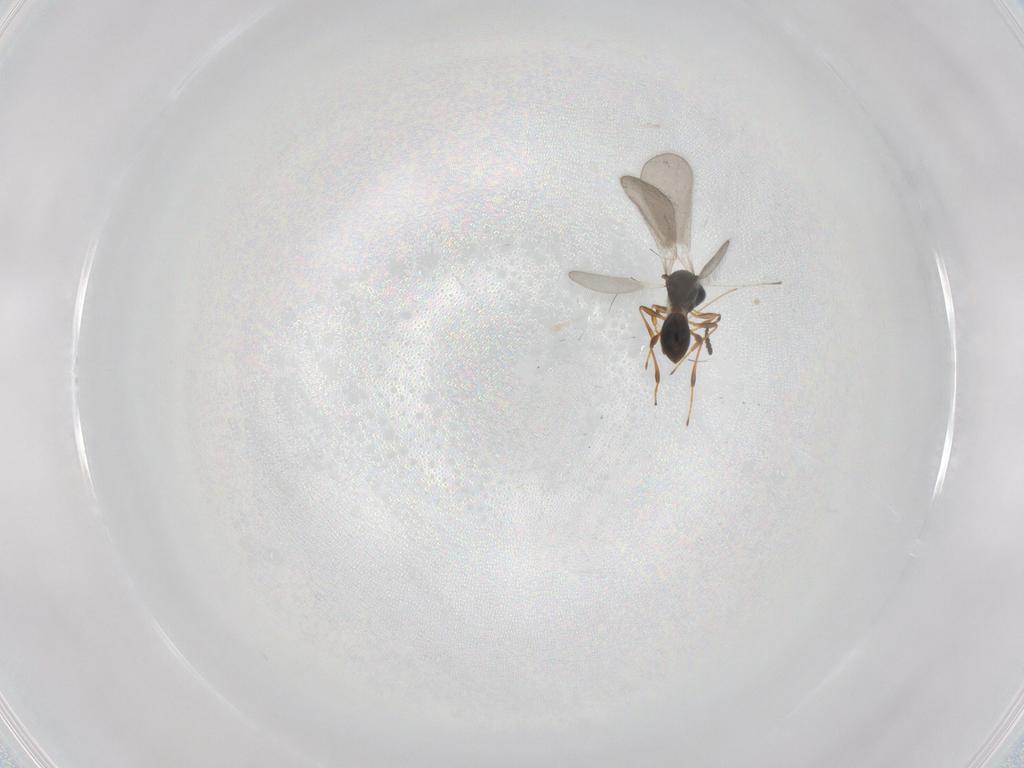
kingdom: Animalia
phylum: Arthropoda
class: Insecta
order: Hymenoptera
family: Platygastridae
